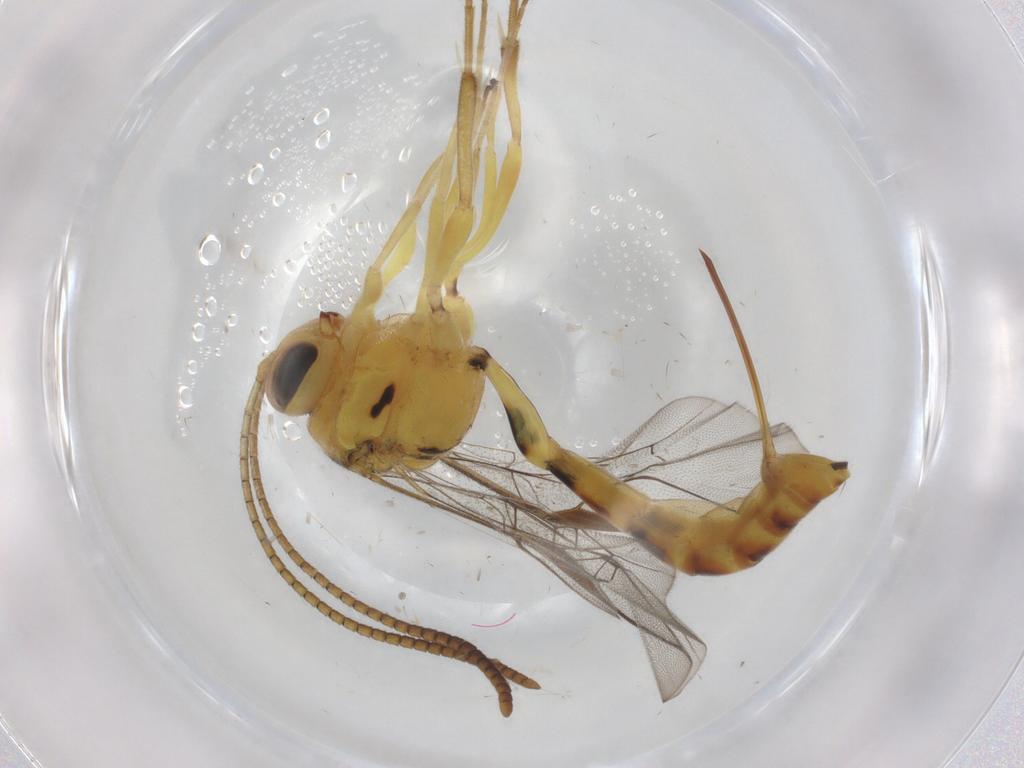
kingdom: Animalia
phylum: Arthropoda
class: Insecta
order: Hymenoptera
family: Ichneumonidae
